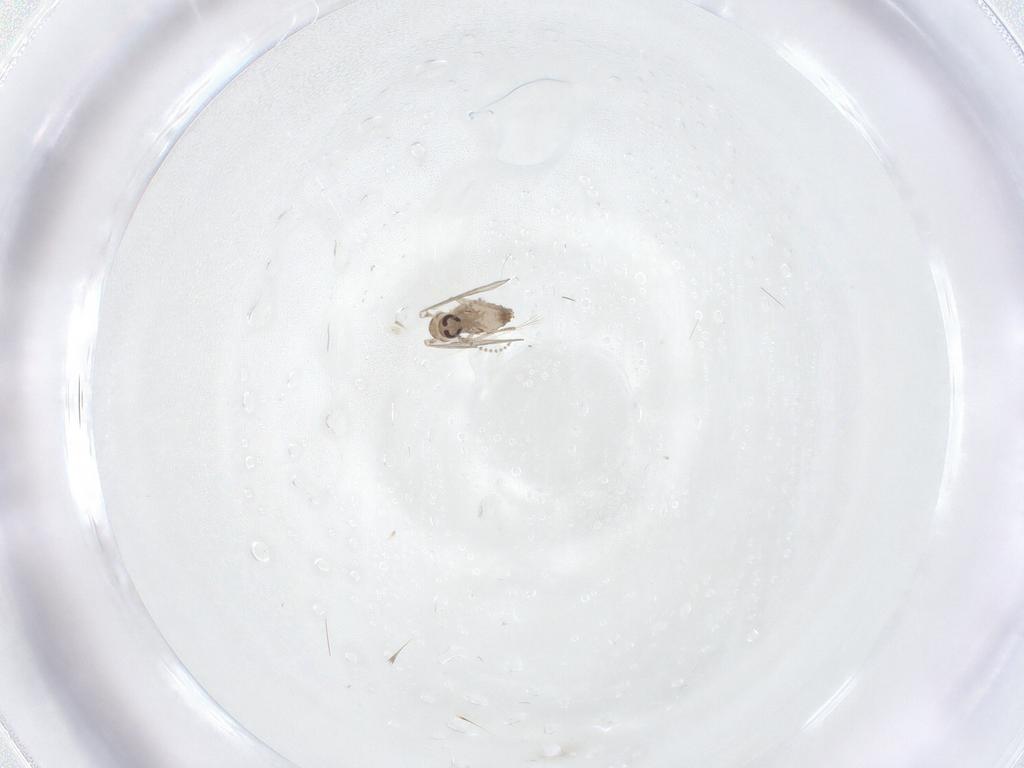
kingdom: Animalia
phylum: Arthropoda
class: Insecta
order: Diptera
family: Psychodidae
